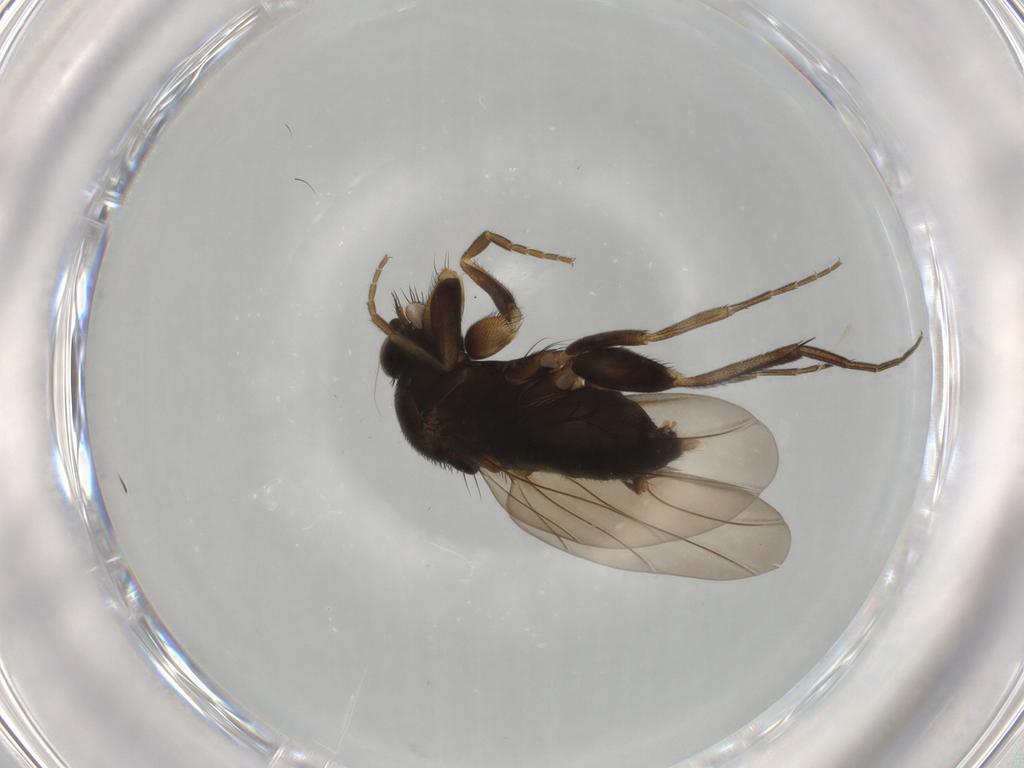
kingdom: Animalia
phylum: Arthropoda
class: Insecta
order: Diptera
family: Phoridae
